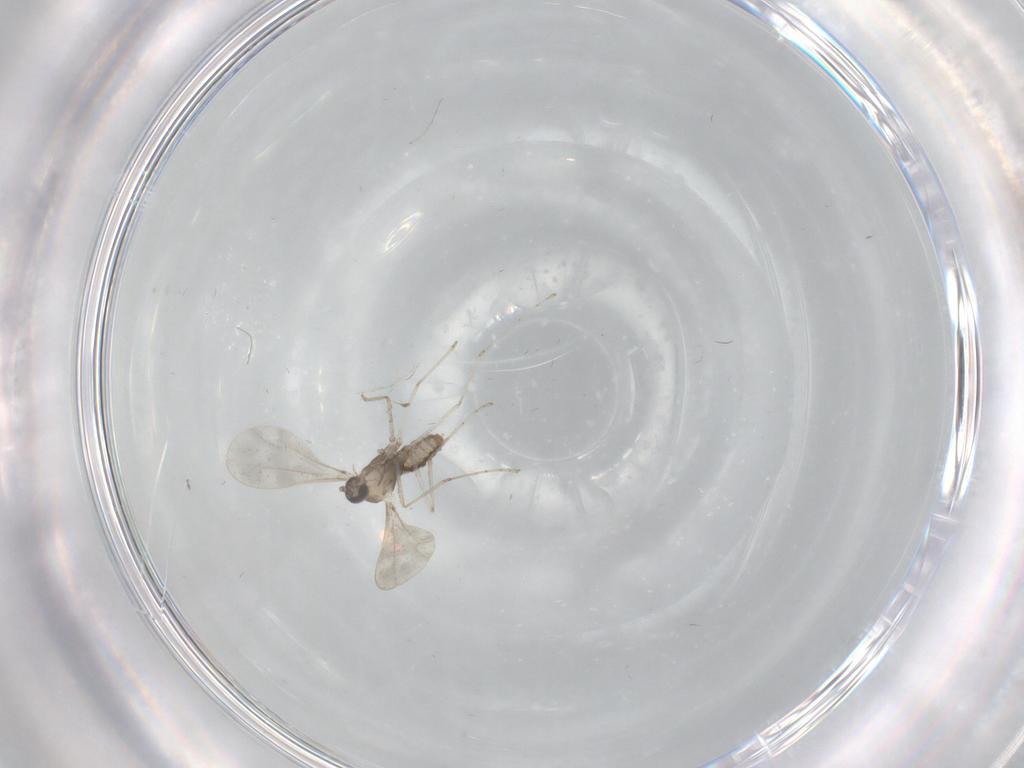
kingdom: Animalia
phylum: Arthropoda
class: Insecta
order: Diptera
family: Cecidomyiidae
